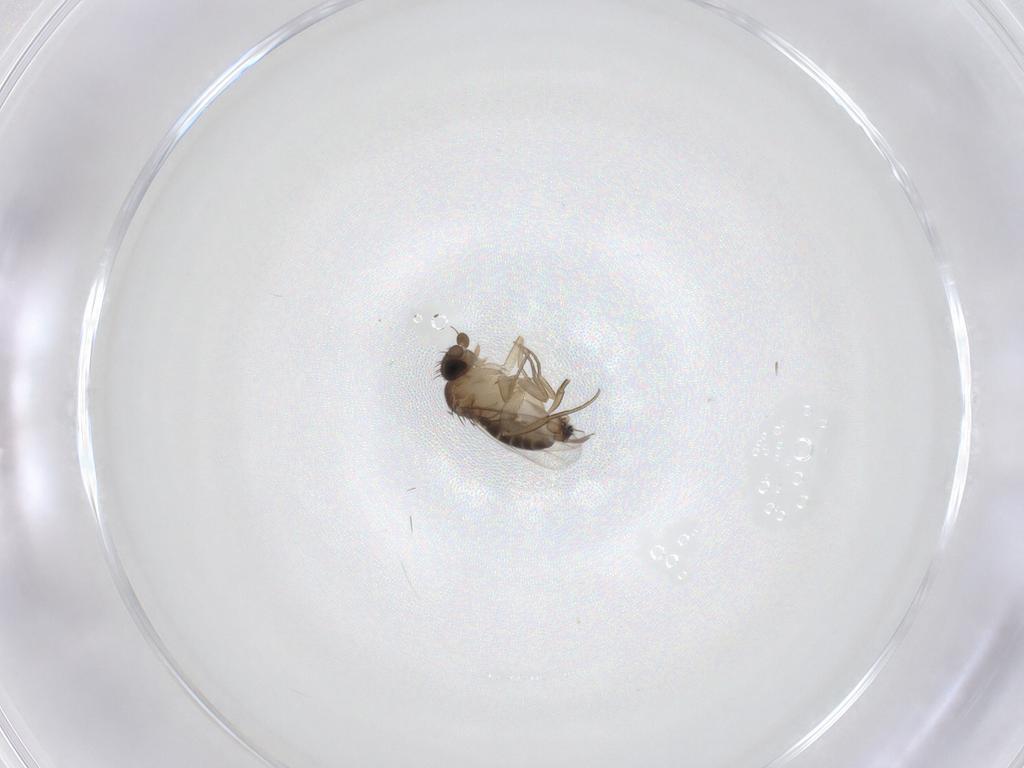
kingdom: Animalia
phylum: Arthropoda
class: Insecta
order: Diptera
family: Phoridae
